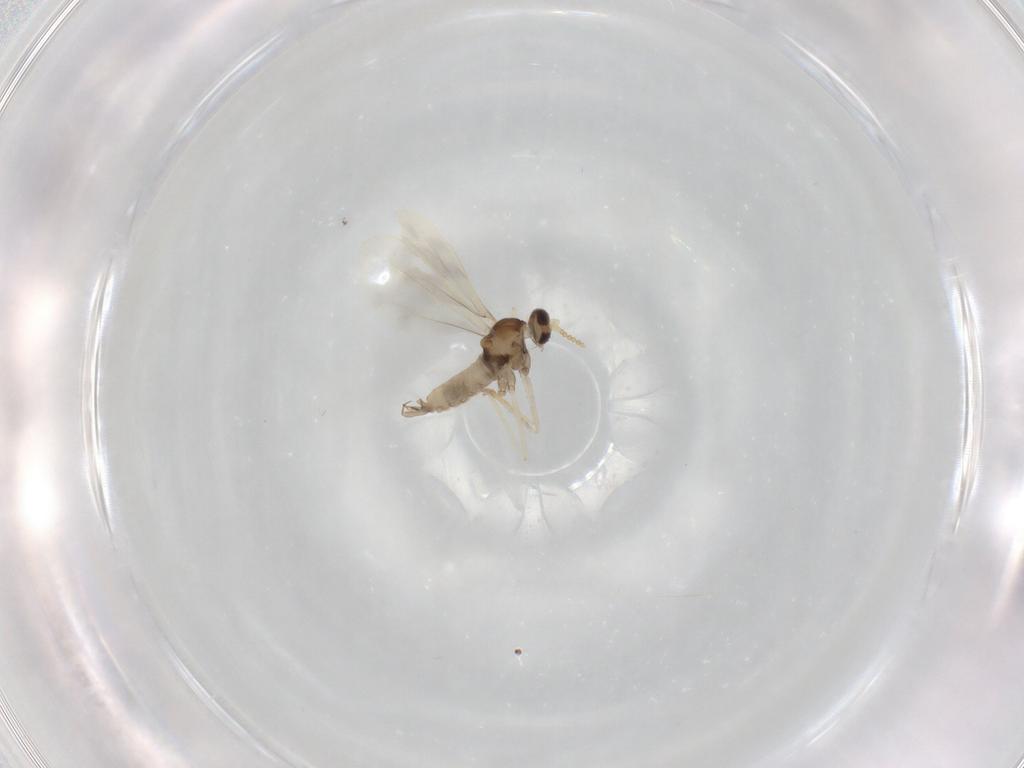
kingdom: Animalia
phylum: Arthropoda
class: Insecta
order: Diptera
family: Cecidomyiidae
